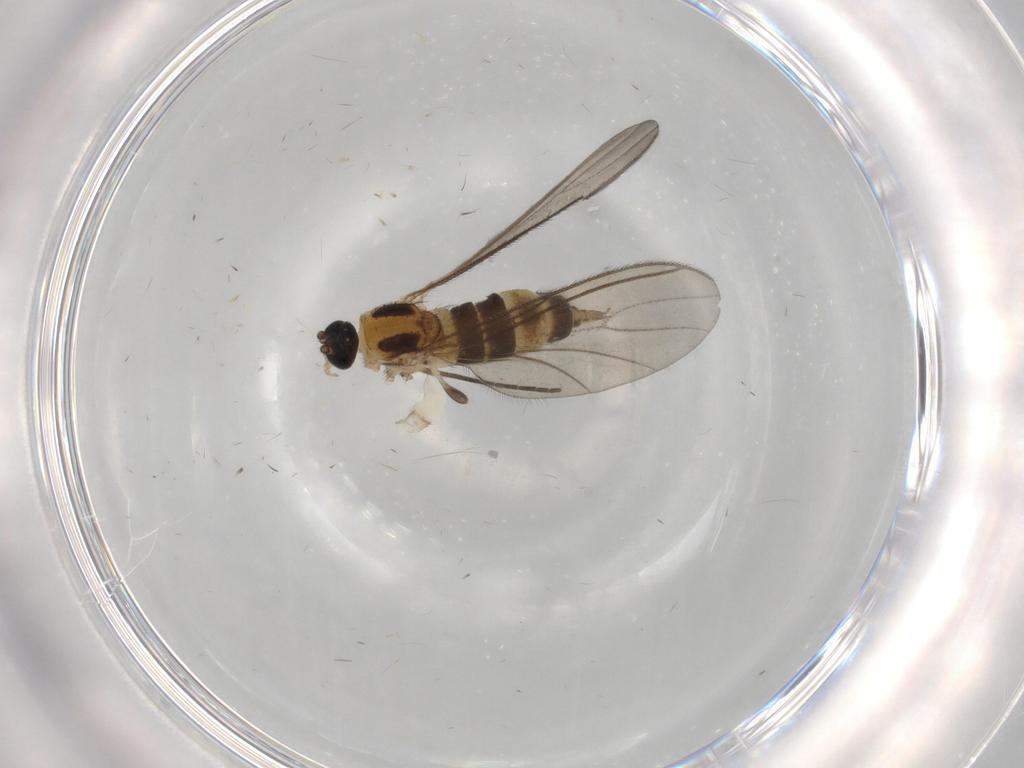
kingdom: Animalia
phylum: Arthropoda
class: Insecta
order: Diptera
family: Sciaridae
